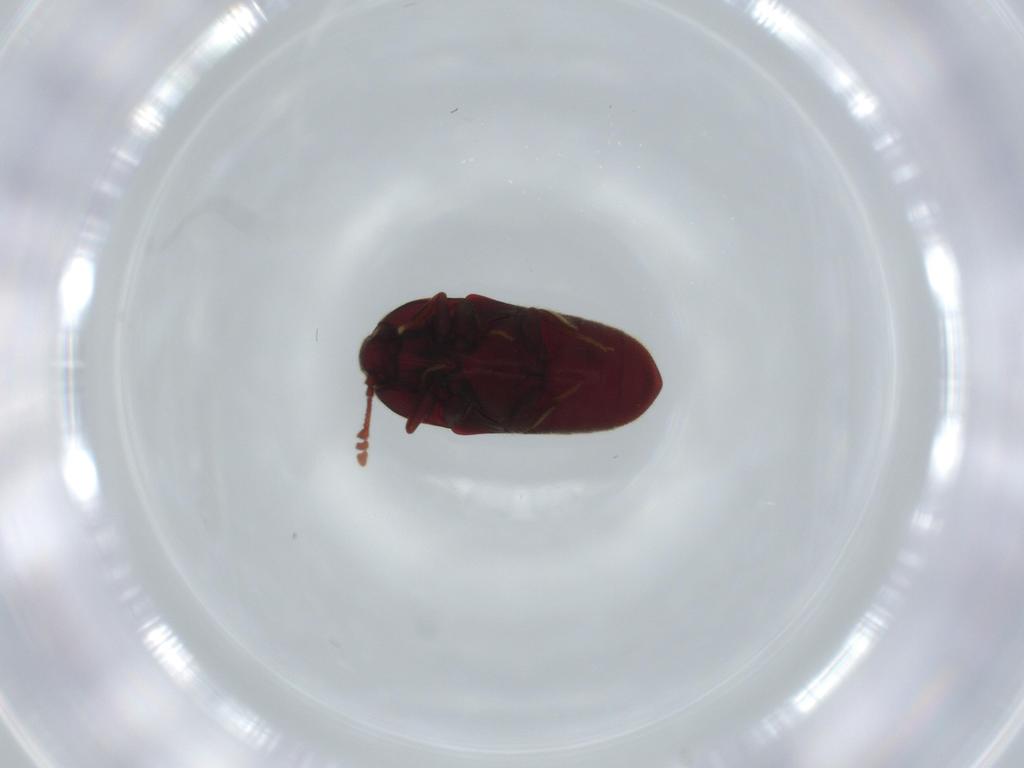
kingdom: Animalia
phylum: Arthropoda
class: Insecta
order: Coleoptera
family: Throscidae
